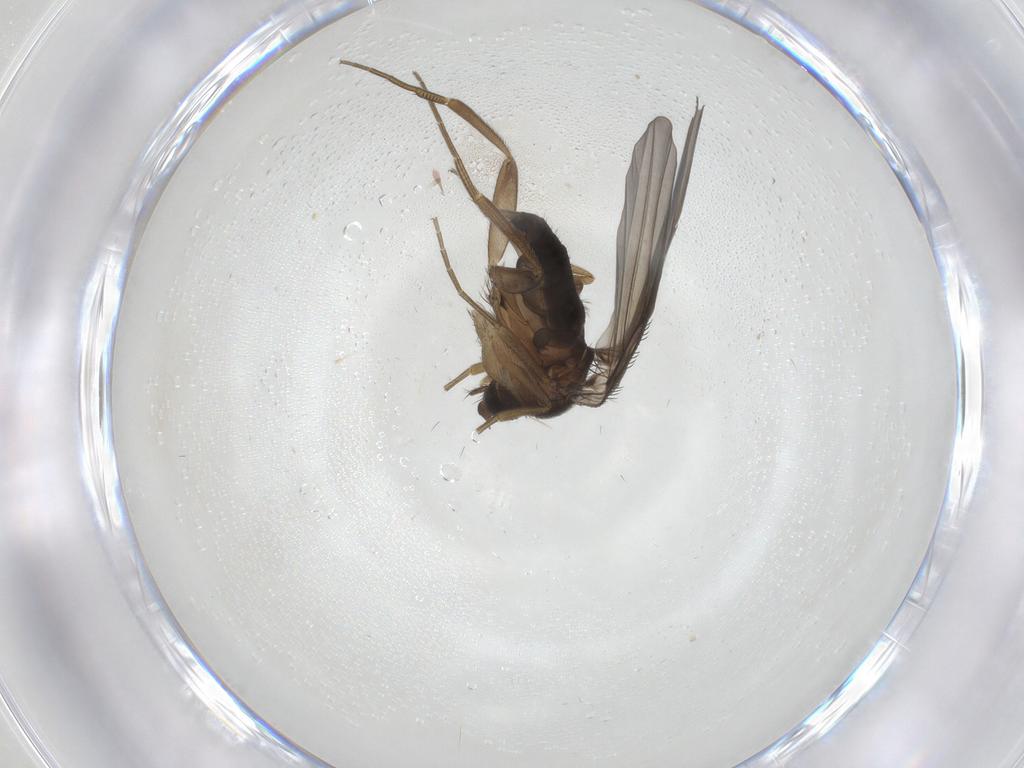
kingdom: Animalia
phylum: Arthropoda
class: Insecta
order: Diptera
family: Phoridae
